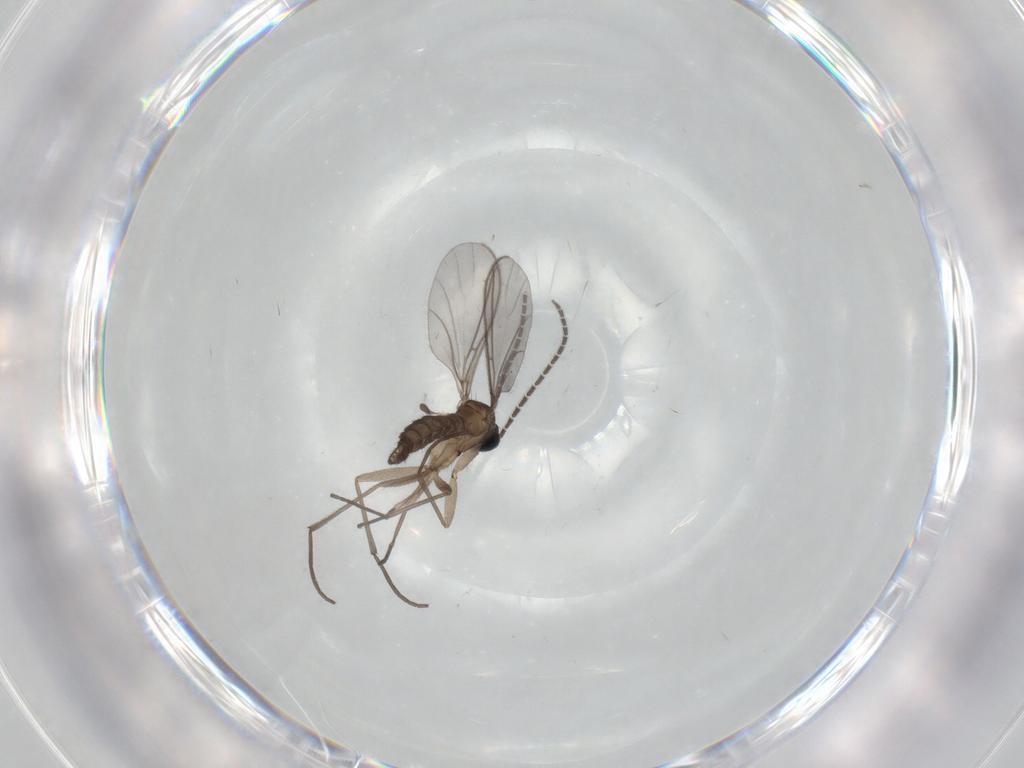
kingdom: Animalia
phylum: Arthropoda
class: Insecta
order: Diptera
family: Sciaridae
